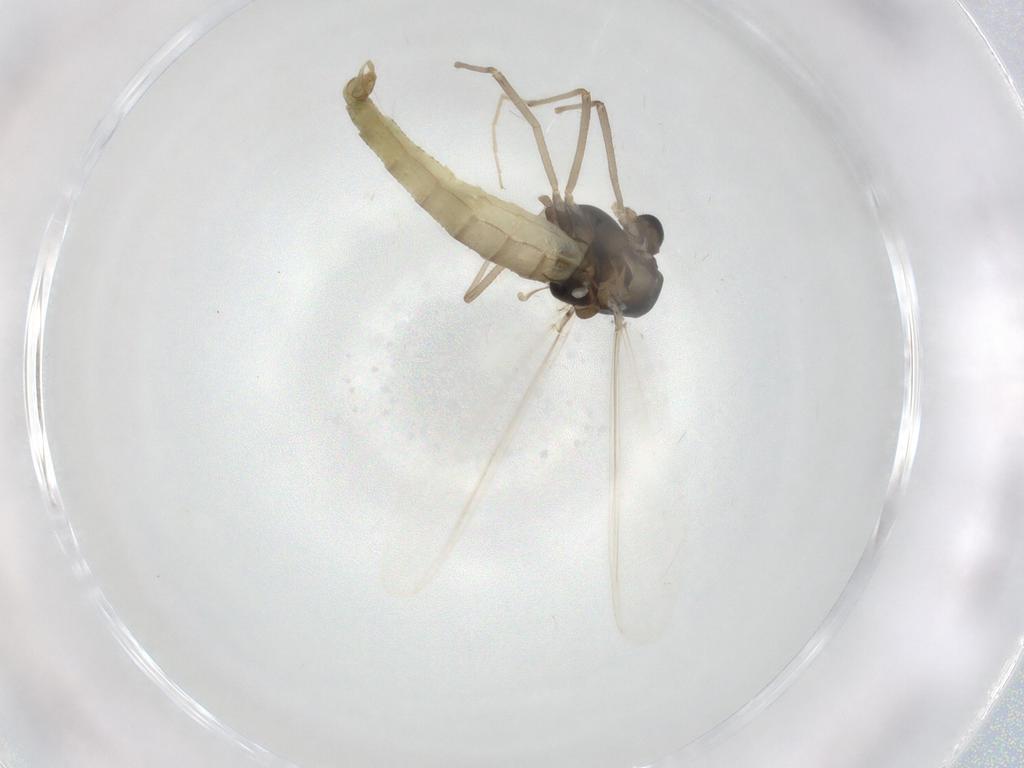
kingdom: Animalia
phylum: Arthropoda
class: Insecta
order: Diptera
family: Chironomidae
